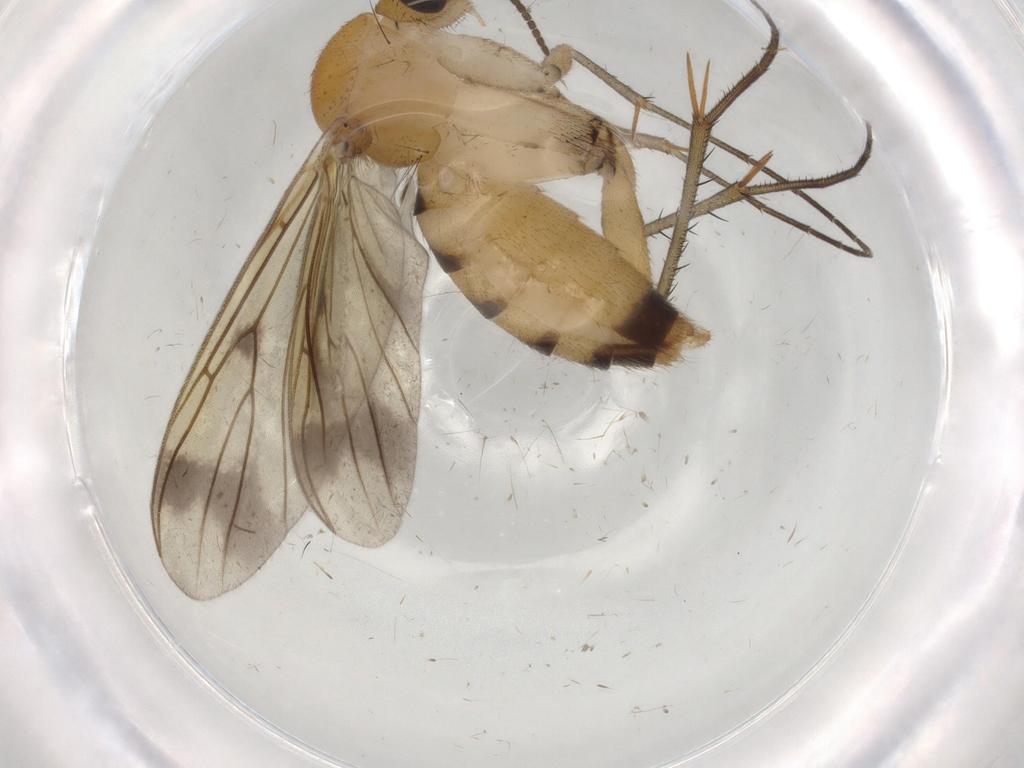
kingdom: Animalia
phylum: Arthropoda
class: Insecta
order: Diptera
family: Mycetophilidae
